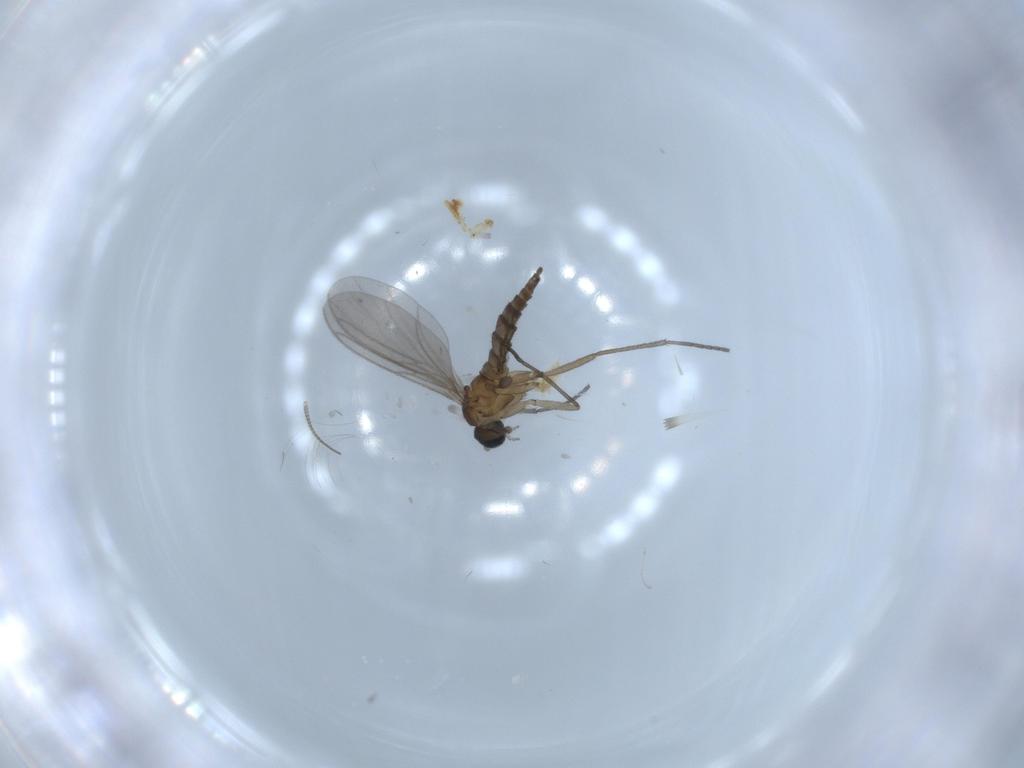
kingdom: Animalia
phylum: Arthropoda
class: Insecta
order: Diptera
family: Chironomidae
